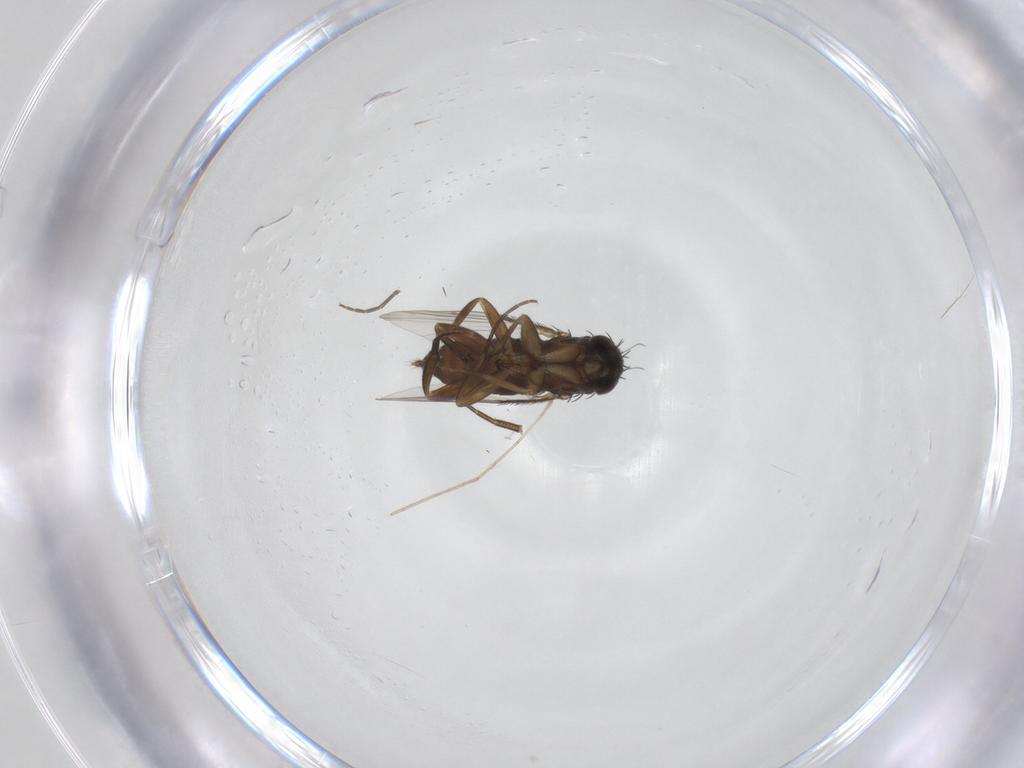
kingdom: Animalia
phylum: Arthropoda
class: Insecta
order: Diptera
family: Phoridae
